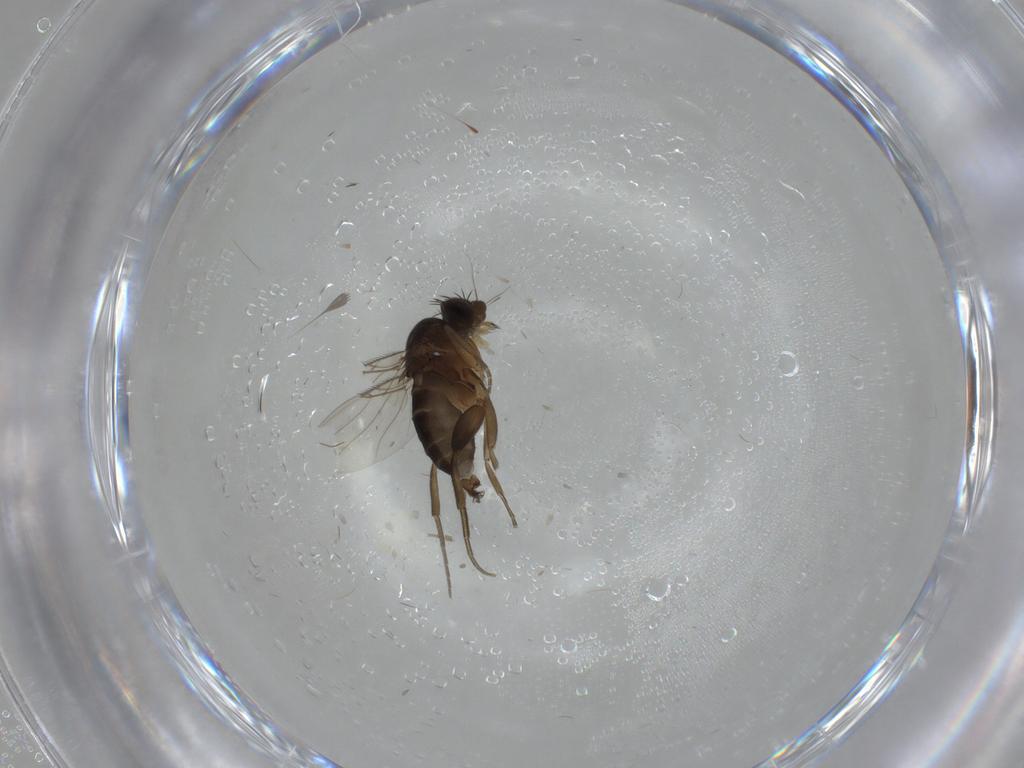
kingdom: Animalia
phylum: Arthropoda
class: Insecta
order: Diptera
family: Phoridae
